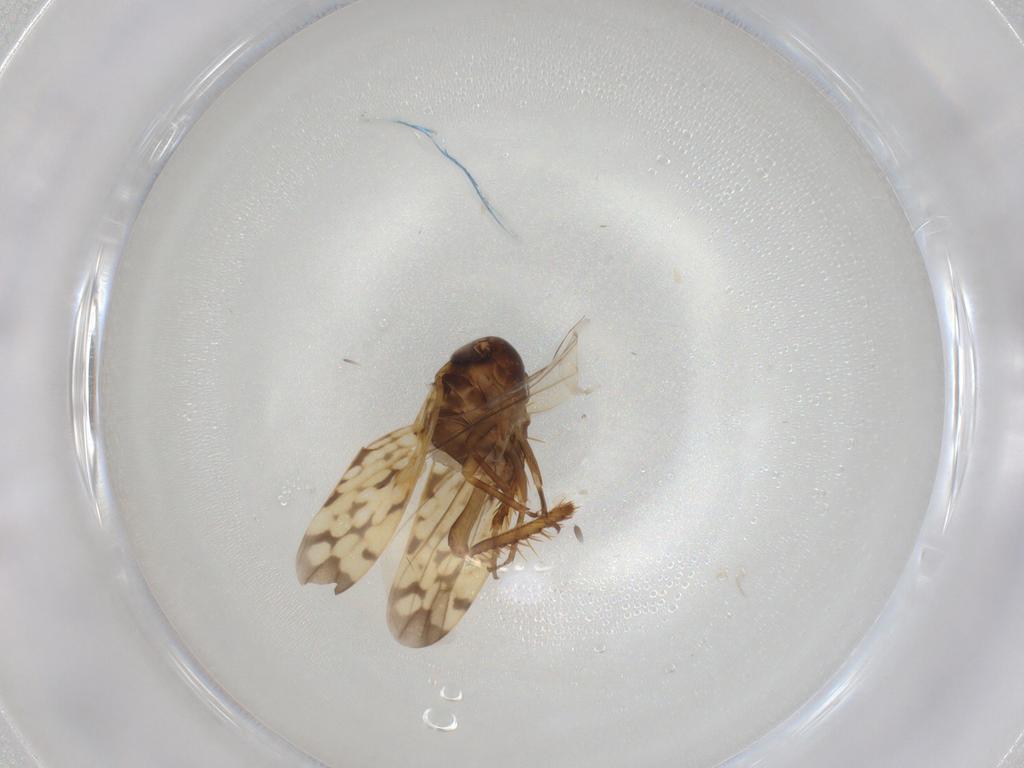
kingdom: Animalia
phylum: Arthropoda
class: Insecta
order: Hemiptera
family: Cicadellidae
